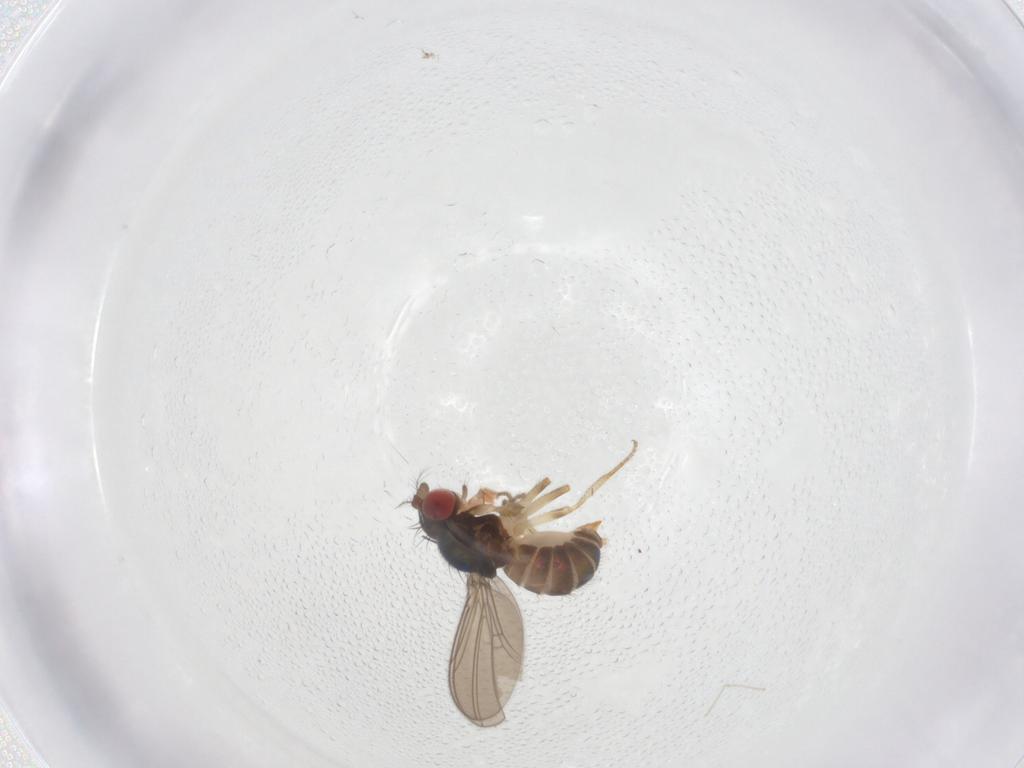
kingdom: Animalia
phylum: Arthropoda
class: Insecta
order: Diptera
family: Drosophilidae
